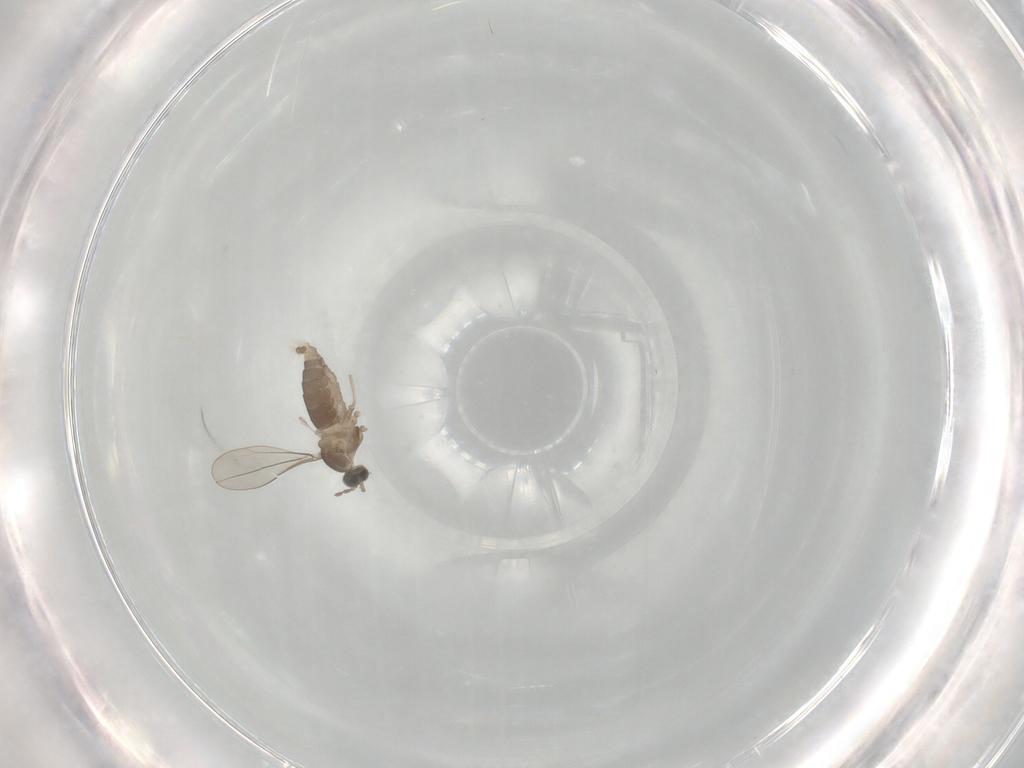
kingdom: Animalia
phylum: Arthropoda
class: Insecta
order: Diptera
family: Cecidomyiidae
